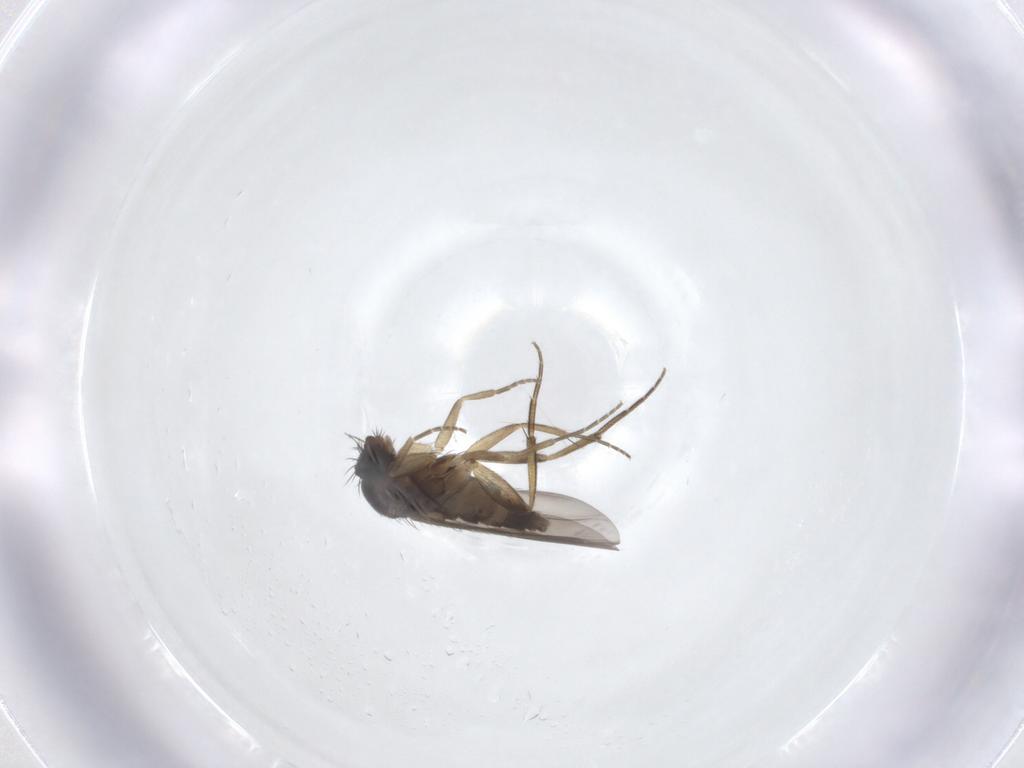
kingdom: Animalia
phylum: Arthropoda
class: Insecta
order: Diptera
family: Phoridae
